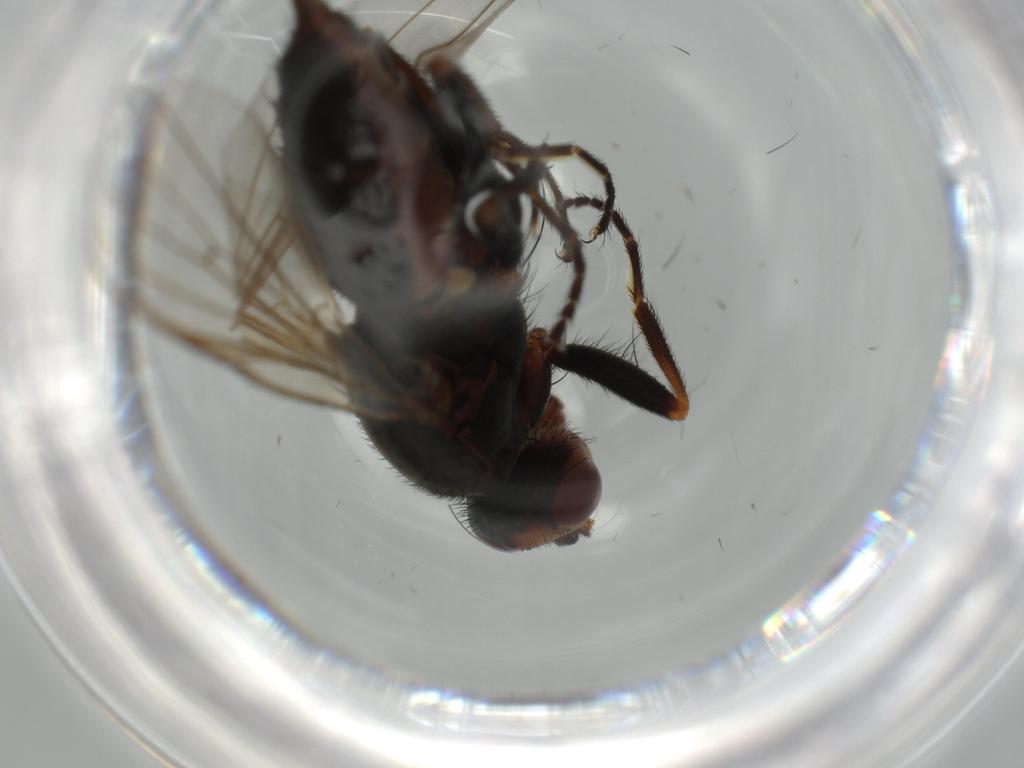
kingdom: Animalia
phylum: Arthropoda
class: Insecta
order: Diptera
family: Heleomyzidae
